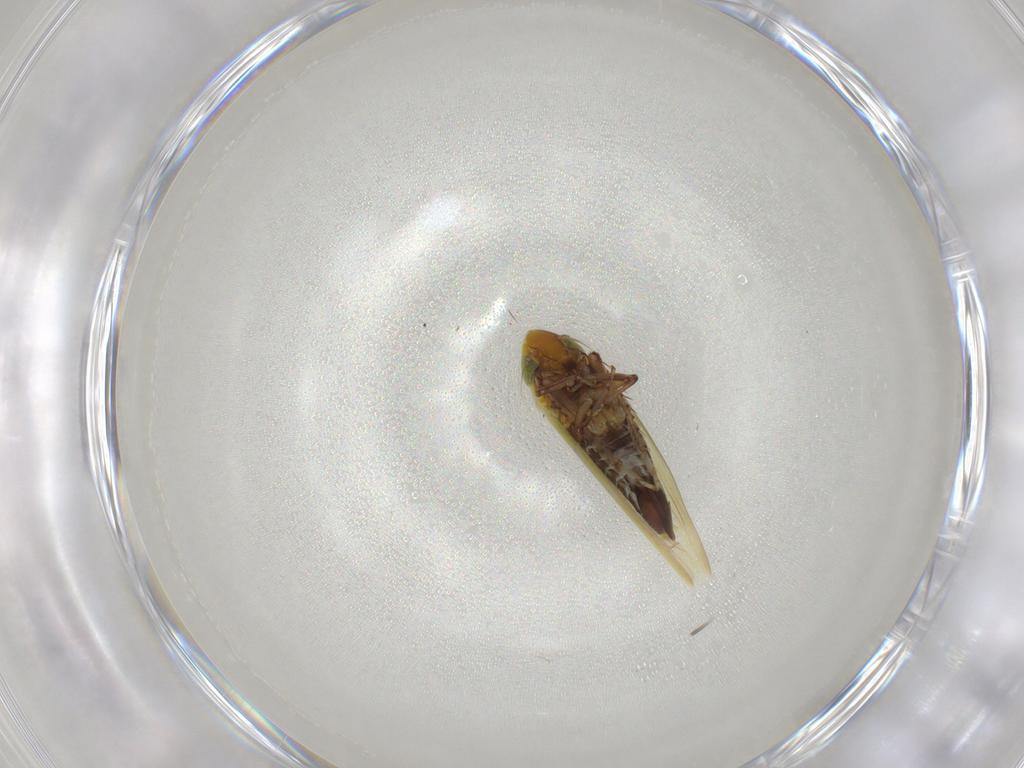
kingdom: Animalia
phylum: Arthropoda
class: Insecta
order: Hemiptera
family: Cicadellidae
